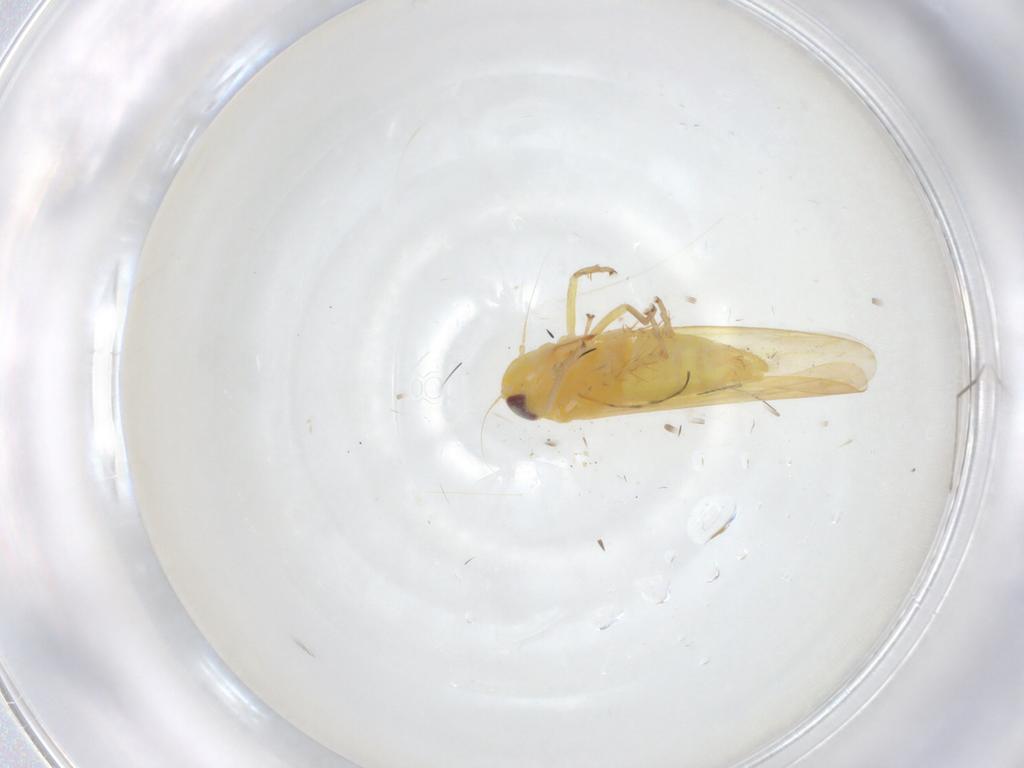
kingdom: Animalia
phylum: Arthropoda
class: Insecta
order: Hemiptera
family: Cicadellidae
